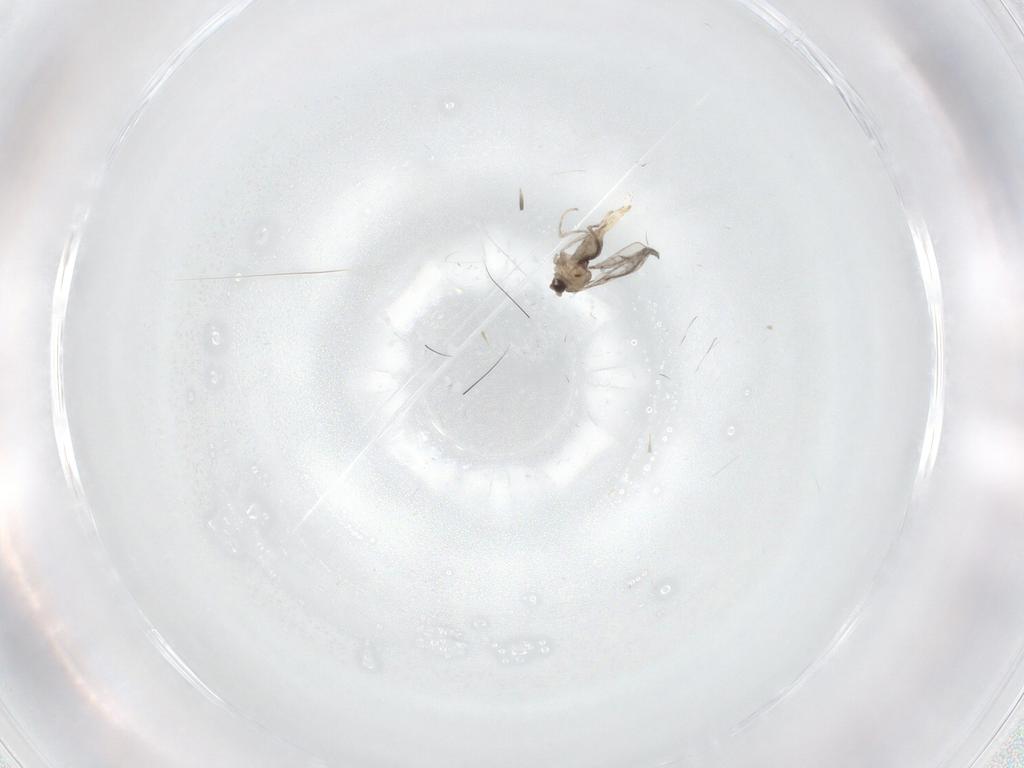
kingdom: Animalia
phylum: Arthropoda
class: Insecta
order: Diptera
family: Cecidomyiidae
